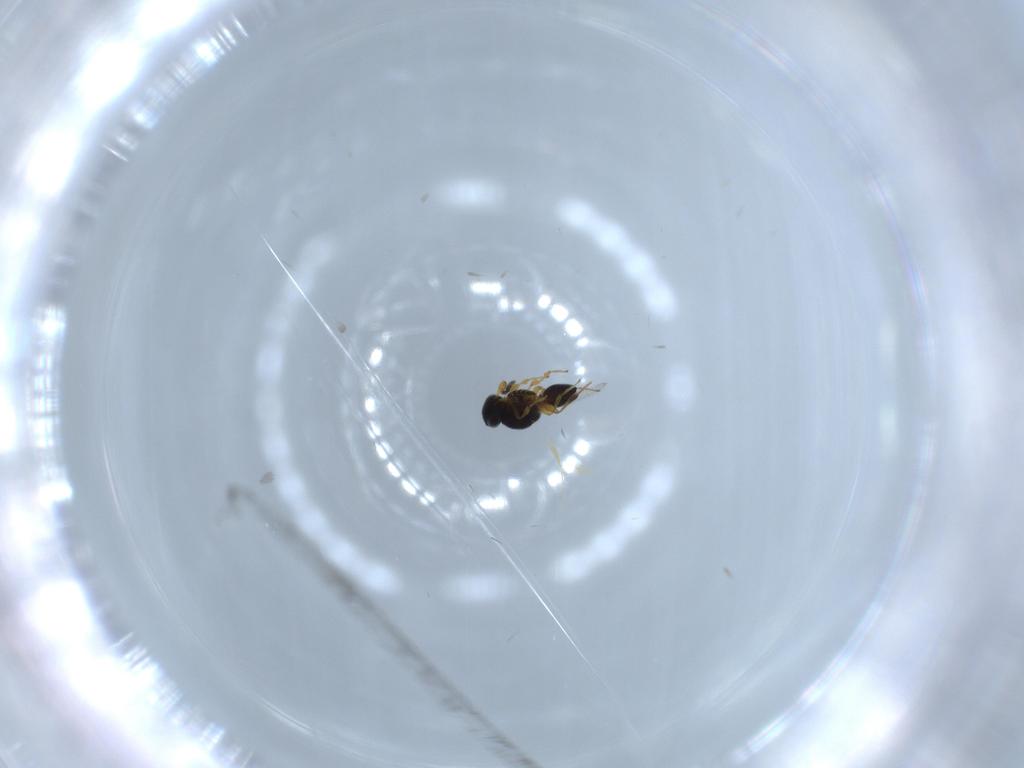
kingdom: Animalia
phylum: Arthropoda
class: Insecta
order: Hymenoptera
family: Platygastridae
